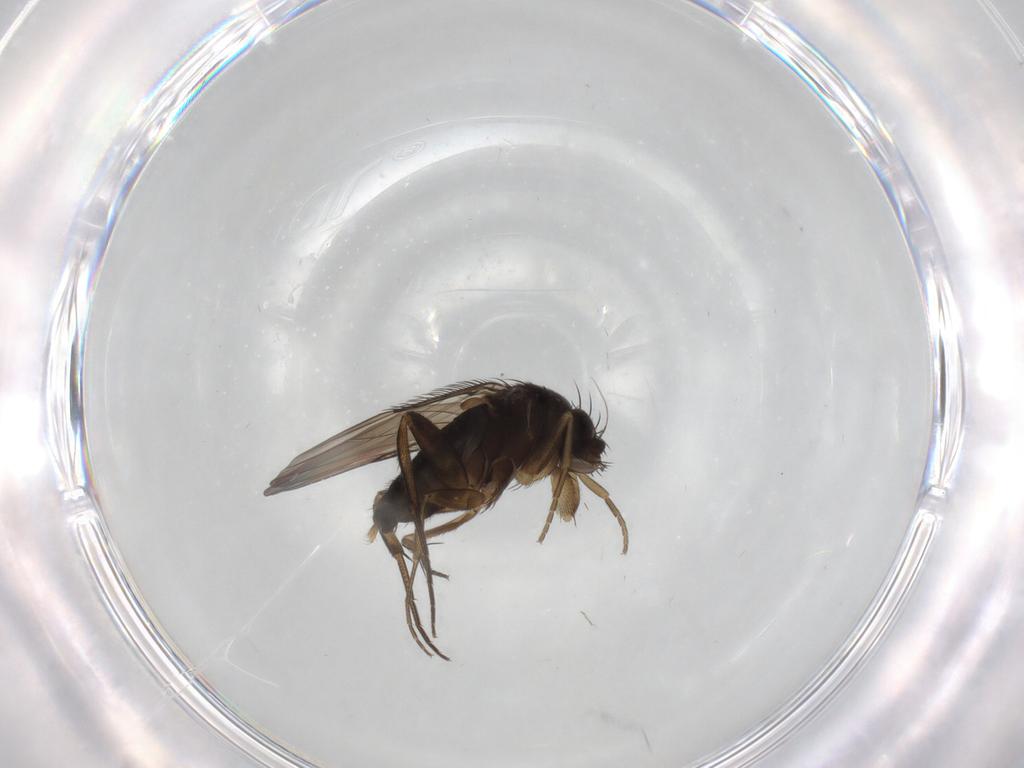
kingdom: Animalia
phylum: Arthropoda
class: Insecta
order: Diptera
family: Phoridae
